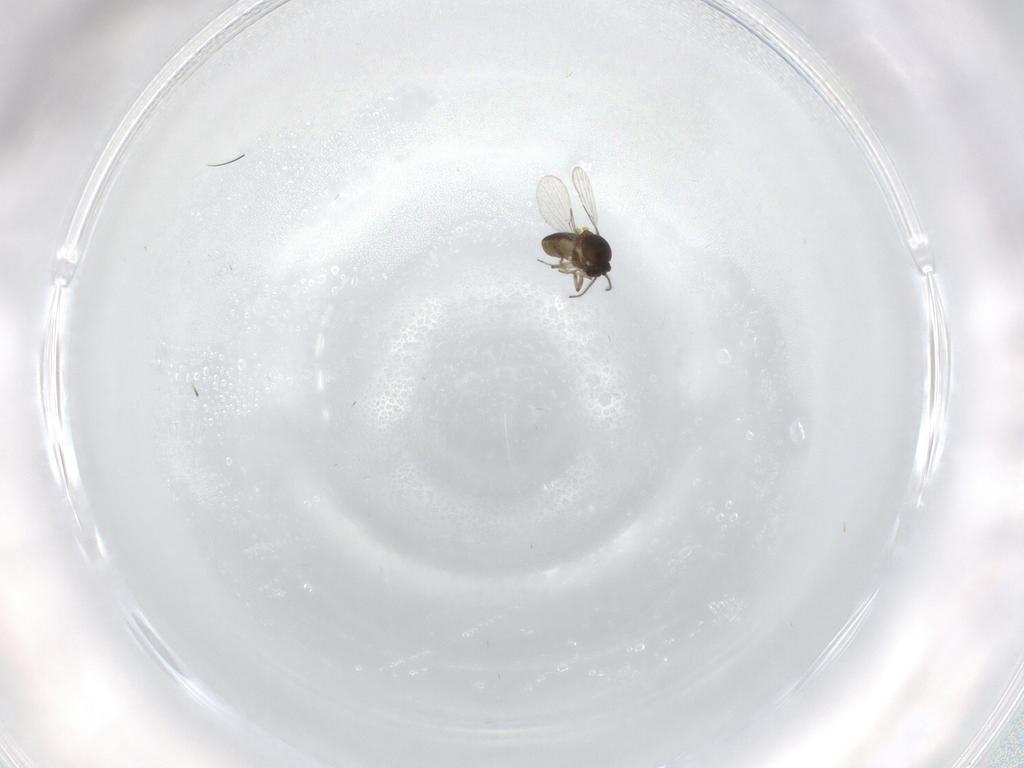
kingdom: Animalia
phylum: Arthropoda
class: Insecta
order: Diptera
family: Ceratopogonidae
